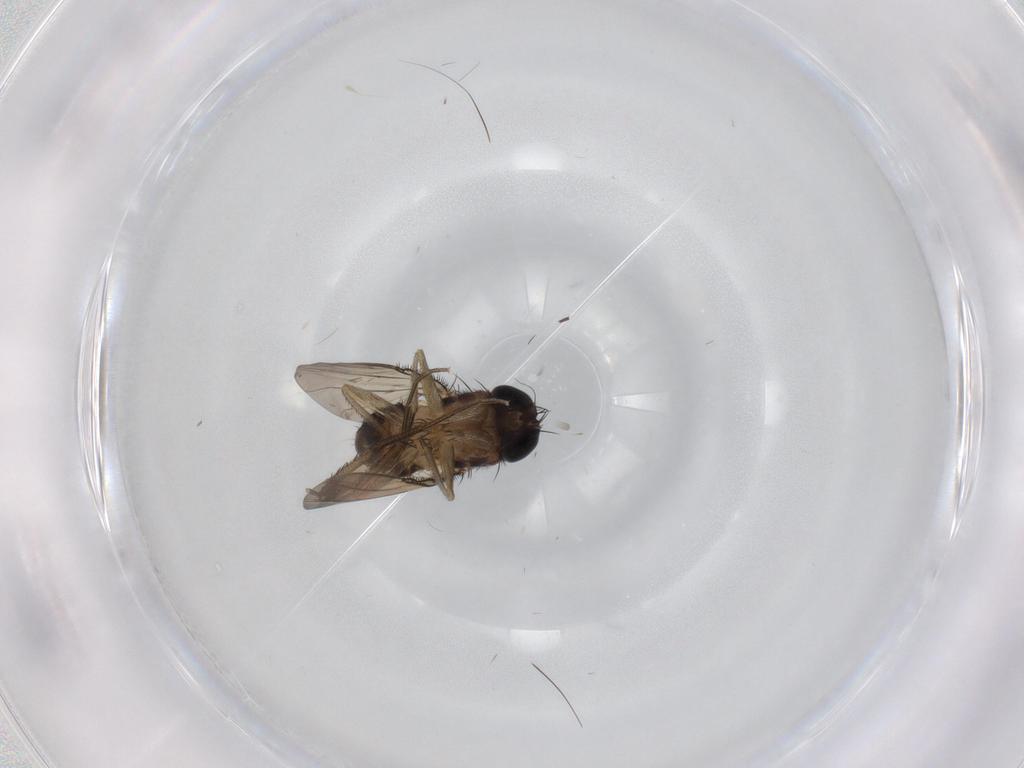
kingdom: Animalia
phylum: Arthropoda
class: Insecta
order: Diptera
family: Phoridae
